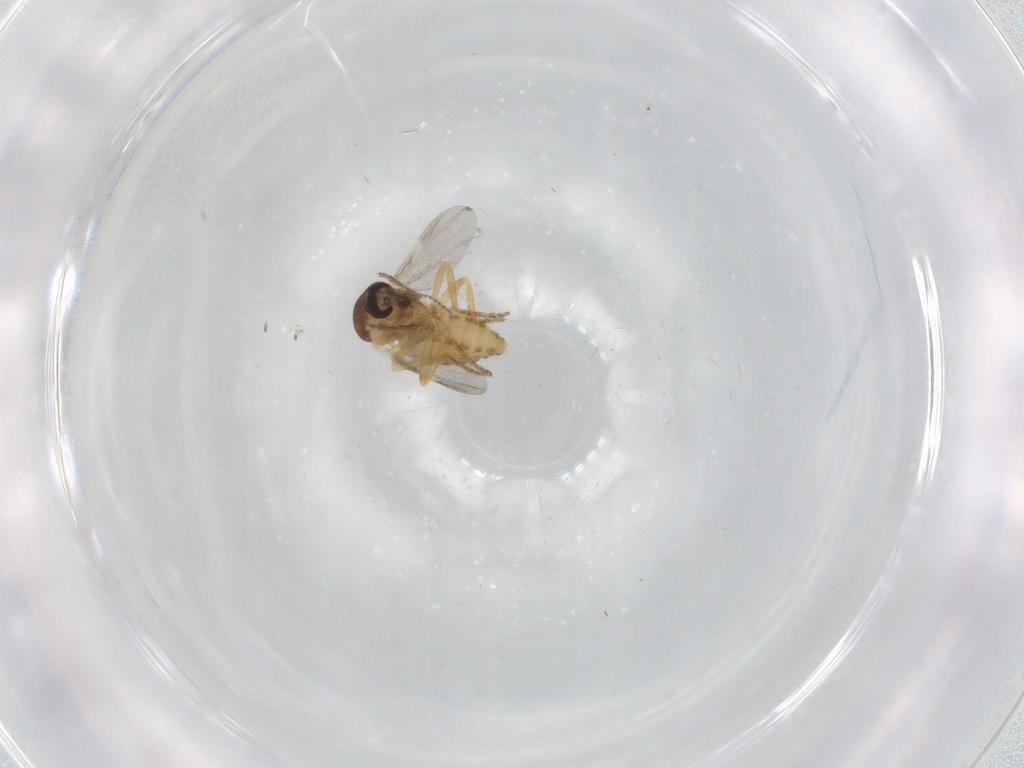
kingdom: Animalia
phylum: Arthropoda
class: Insecta
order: Diptera
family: Ceratopogonidae
